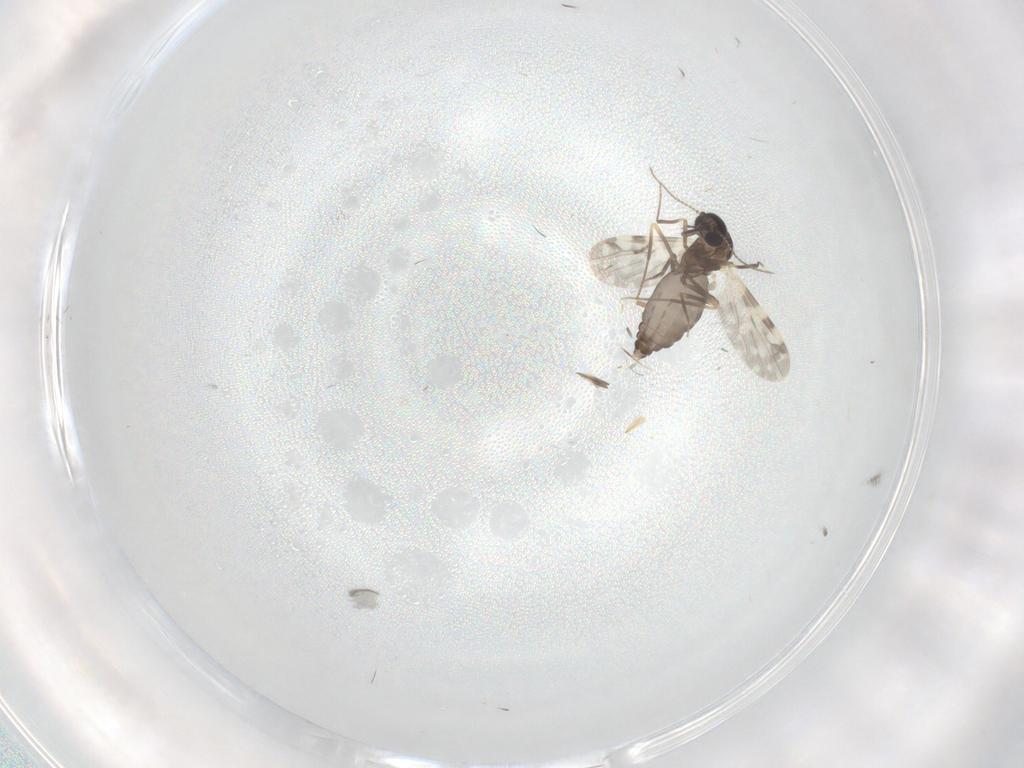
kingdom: Animalia
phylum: Arthropoda
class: Insecta
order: Diptera
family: Ceratopogonidae
